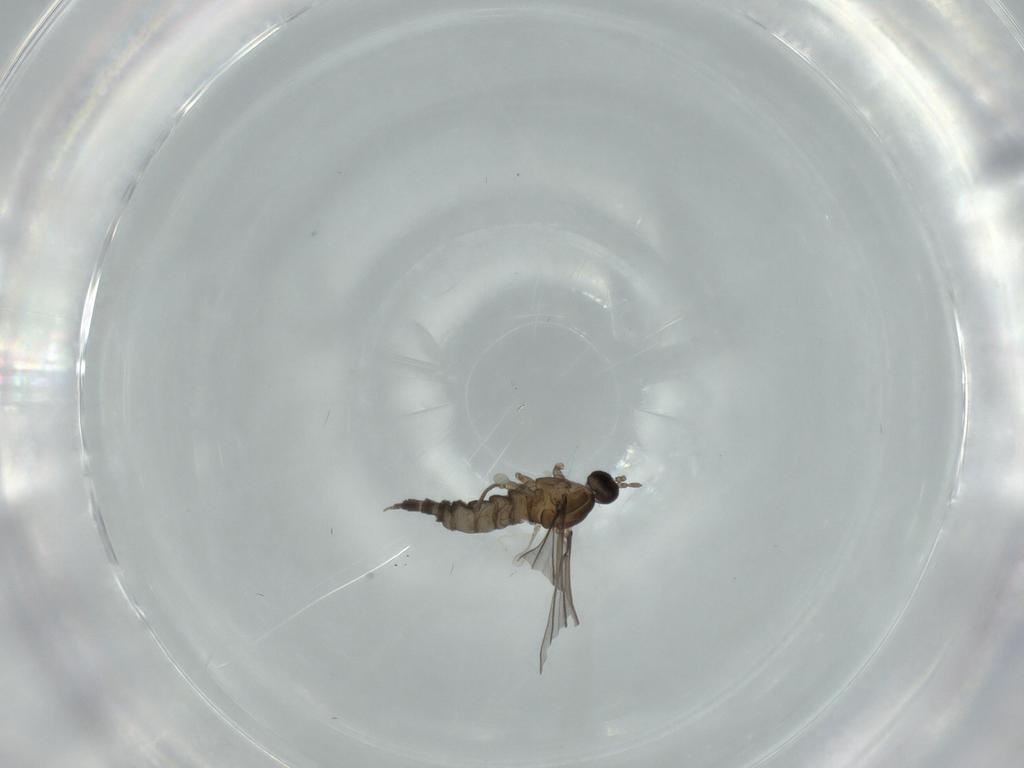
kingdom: Animalia
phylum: Arthropoda
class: Insecta
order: Diptera
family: Cecidomyiidae
